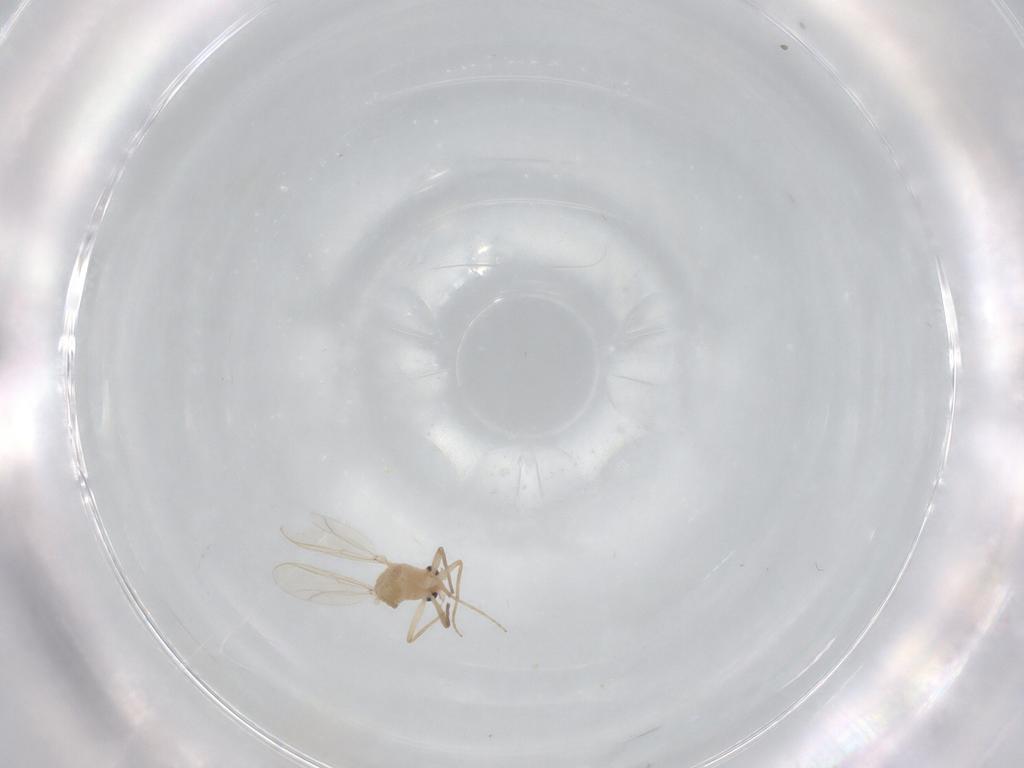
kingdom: Animalia
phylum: Arthropoda
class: Insecta
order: Diptera
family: Chironomidae
